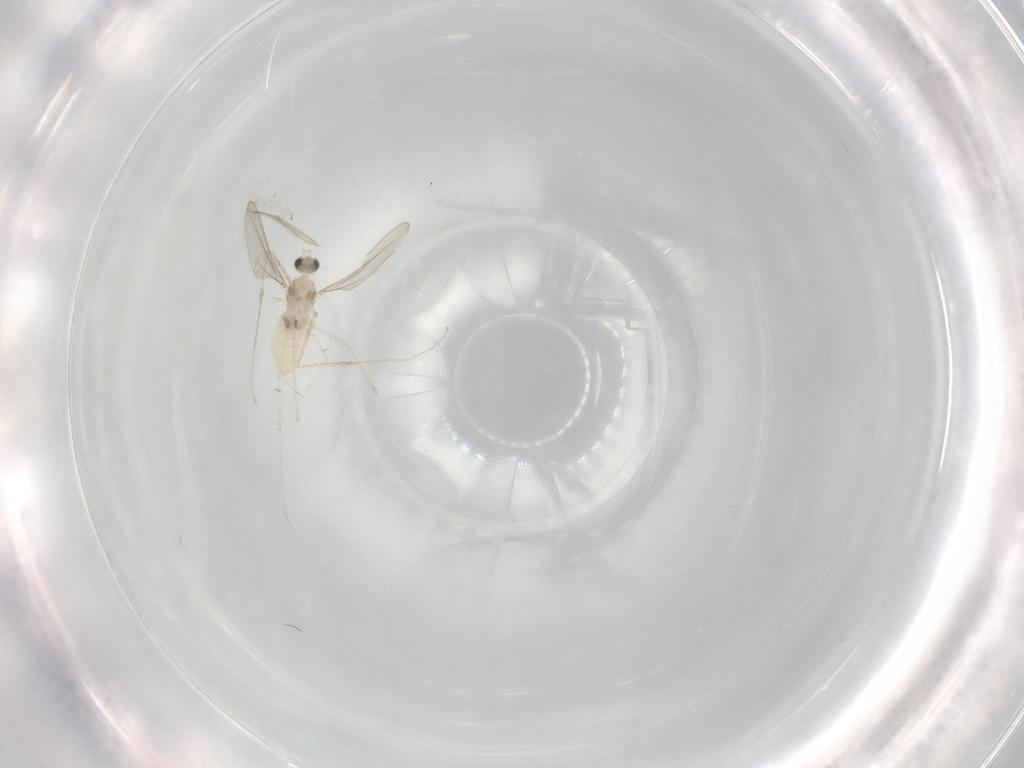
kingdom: Animalia
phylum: Arthropoda
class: Insecta
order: Diptera
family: Cecidomyiidae
